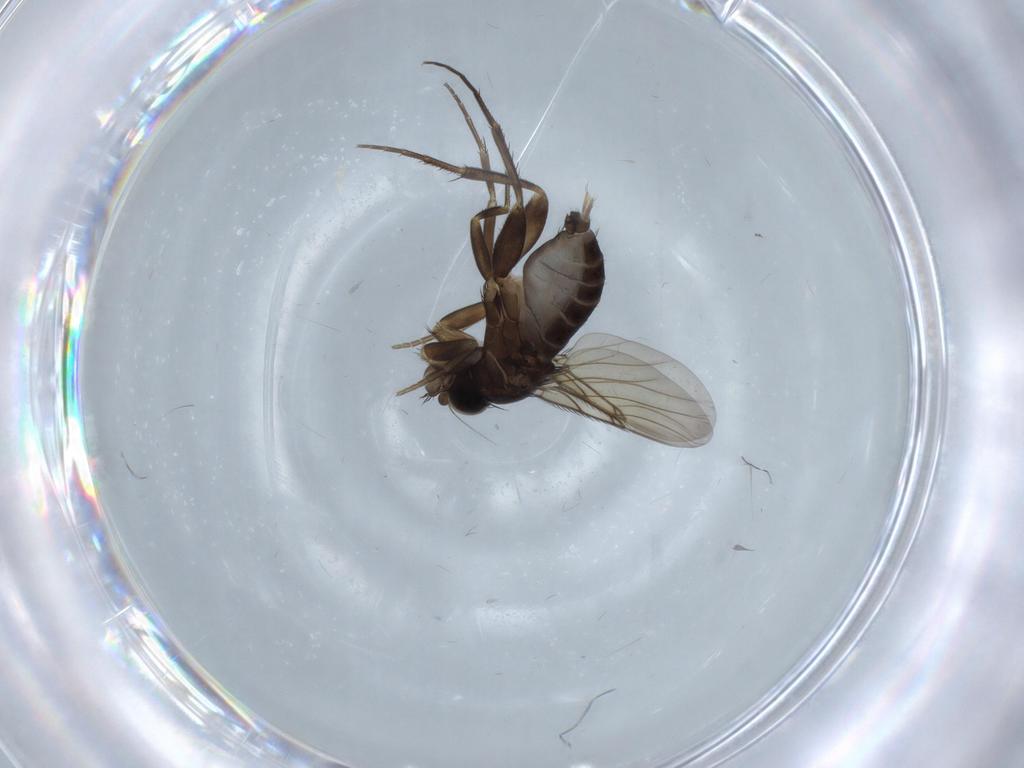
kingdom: Animalia
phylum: Arthropoda
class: Insecta
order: Diptera
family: Phoridae
